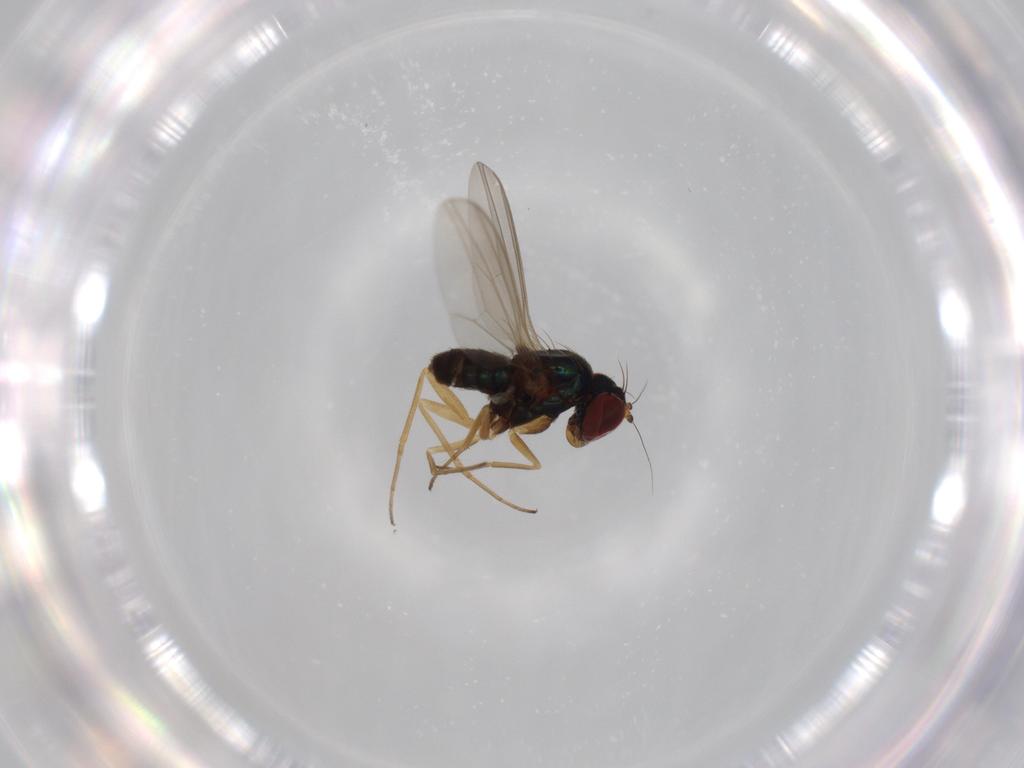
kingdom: Animalia
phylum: Arthropoda
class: Insecta
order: Diptera
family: Dolichopodidae
